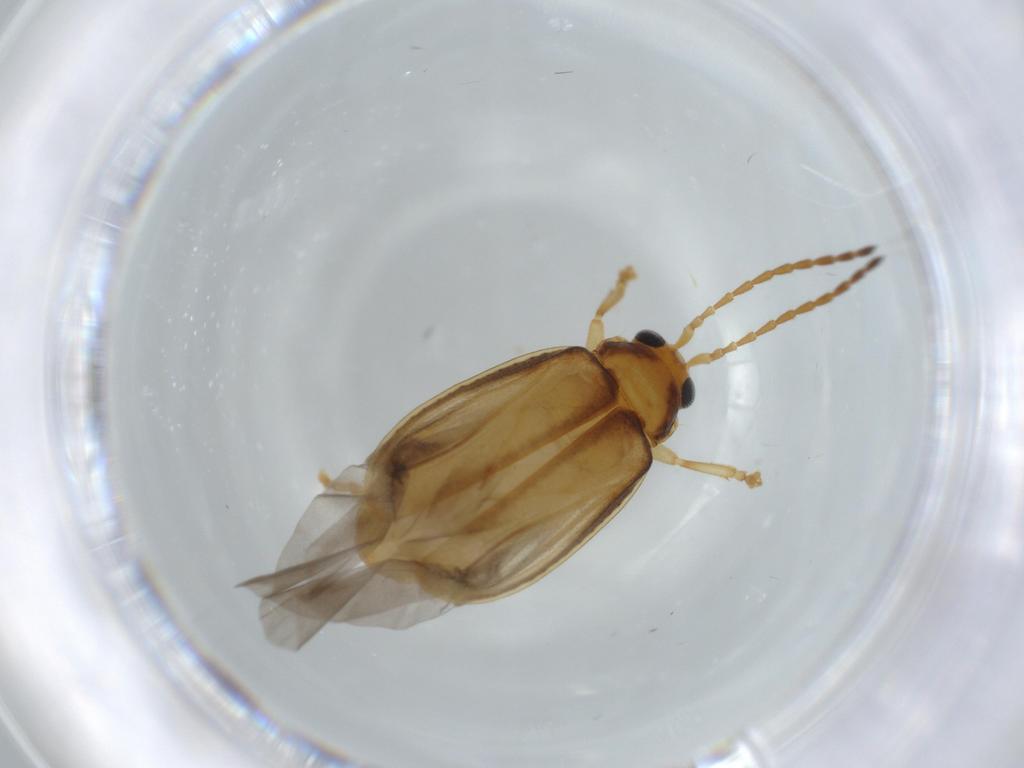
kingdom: Animalia
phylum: Arthropoda
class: Insecta
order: Coleoptera
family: Chrysomelidae
